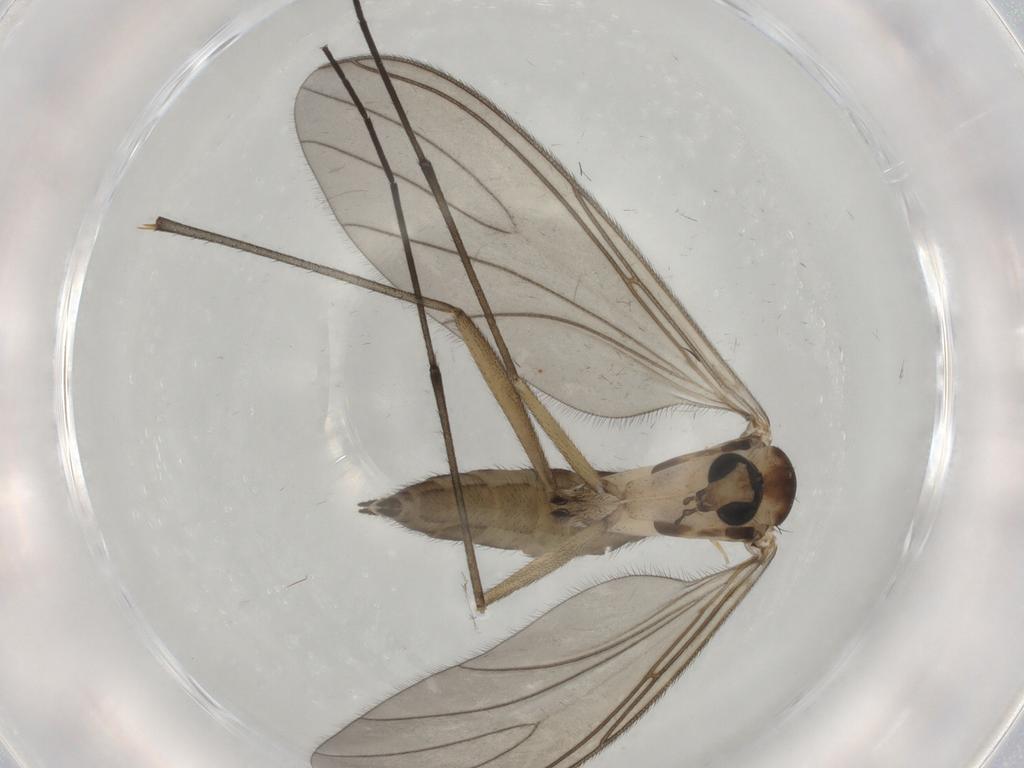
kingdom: Animalia
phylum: Arthropoda
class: Insecta
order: Diptera
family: Sciaridae
